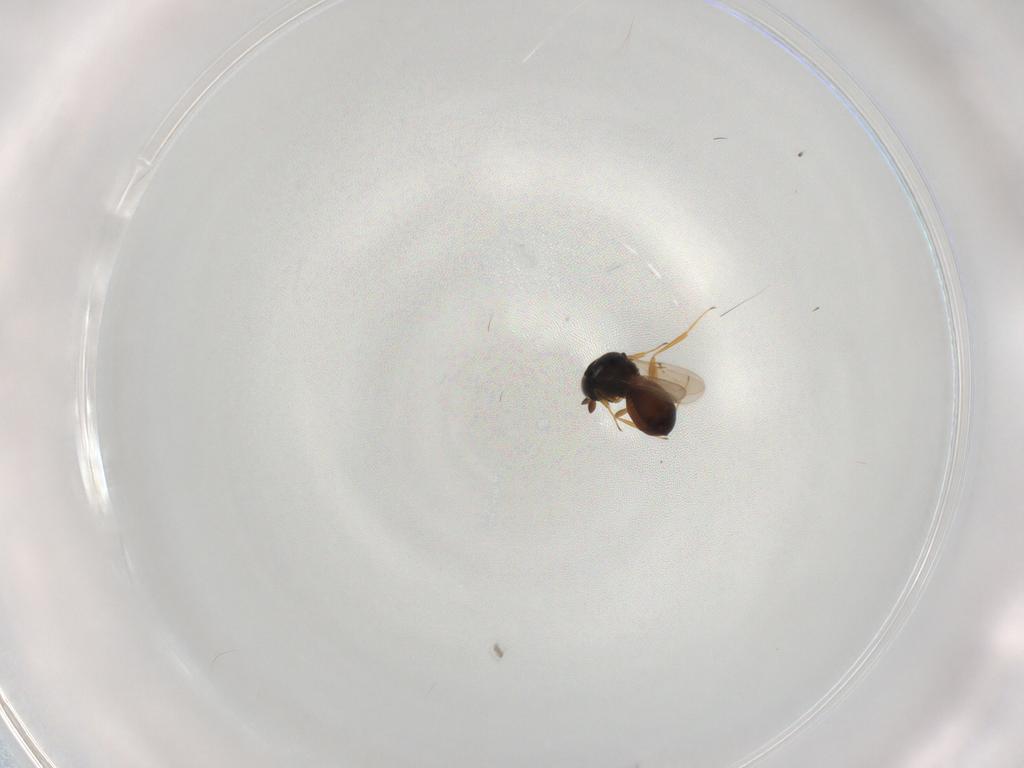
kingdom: Animalia
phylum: Arthropoda
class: Insecta
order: Hymenoptera
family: Scelionidae
